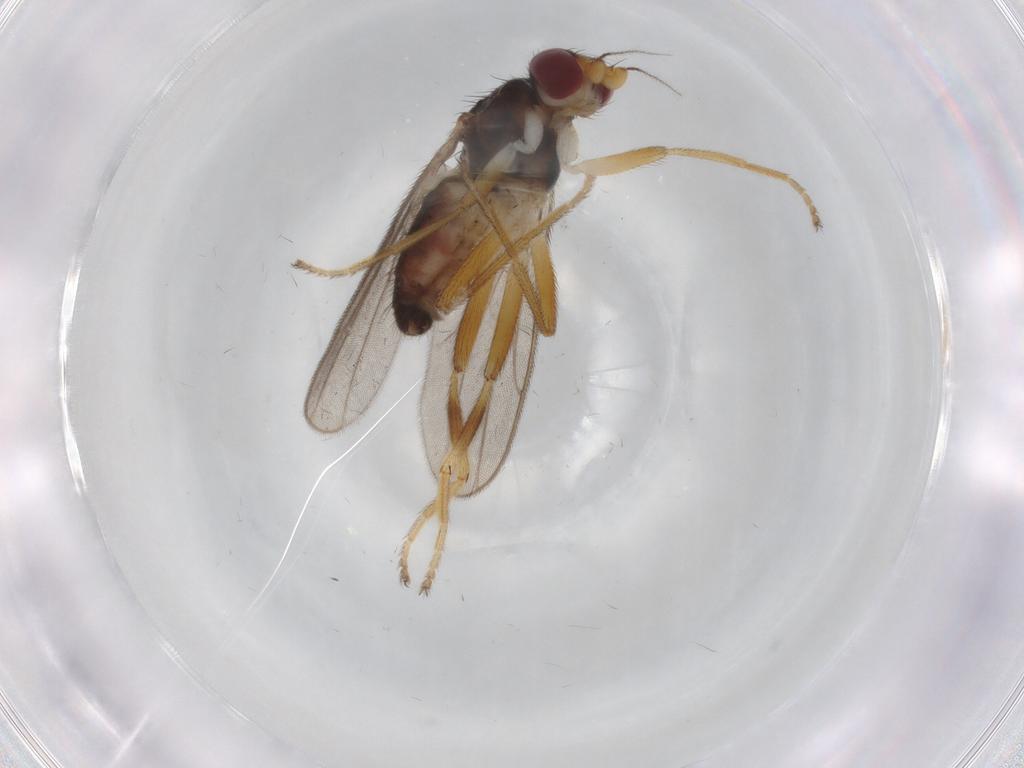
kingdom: Animalia
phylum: Arthropoda
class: Insecta
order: Diptera
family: Chloropidae
